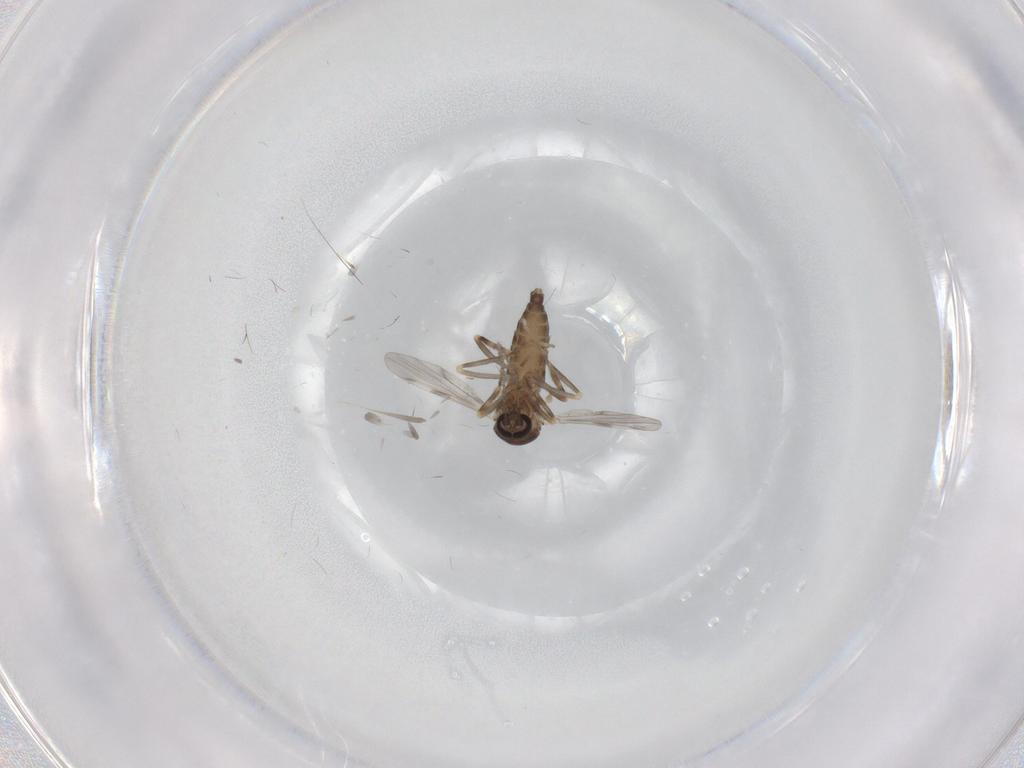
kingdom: Animalia
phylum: Arthropoda
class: Insecta
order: Diptera
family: Ceratopogonidae
